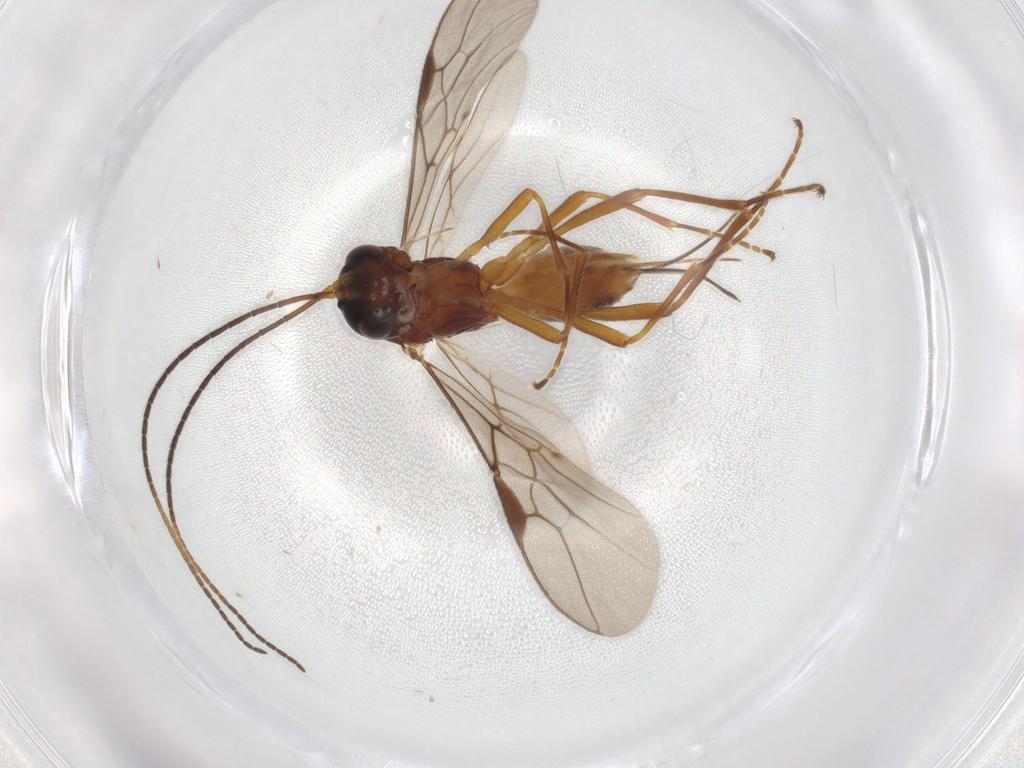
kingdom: Animalia
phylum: Arthropoda
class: Insecta
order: Hymenoptera
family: Braconidae
